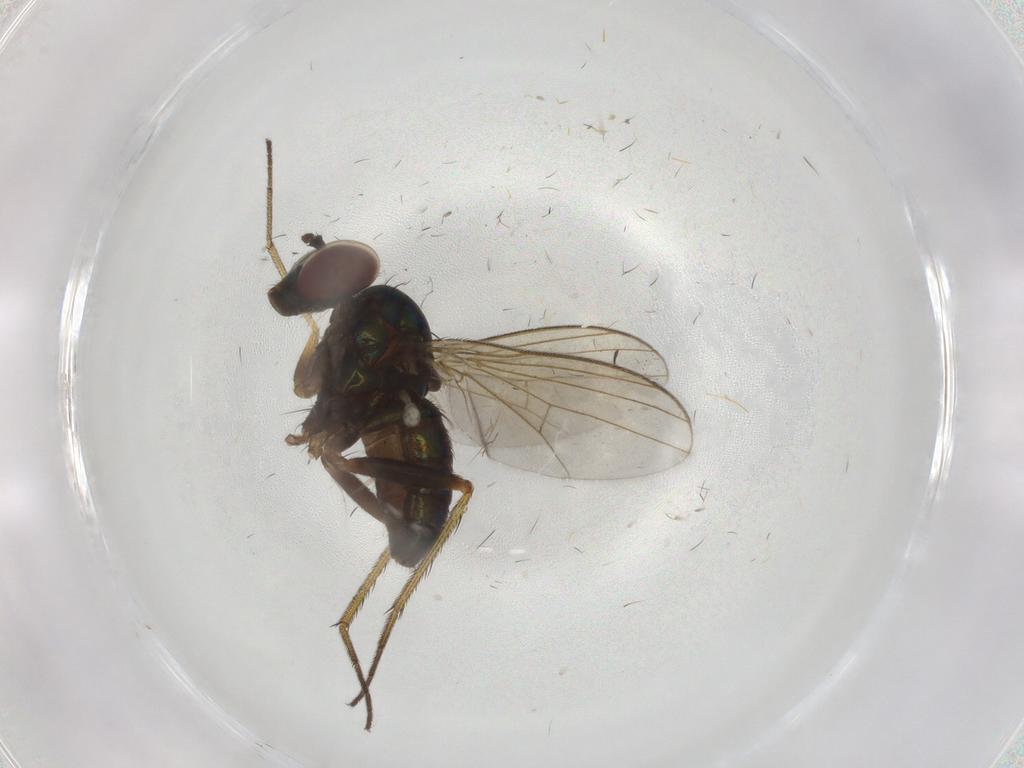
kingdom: Animalia
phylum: Arthropoda
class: Insecta
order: Diptera
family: Dolichopodidae
